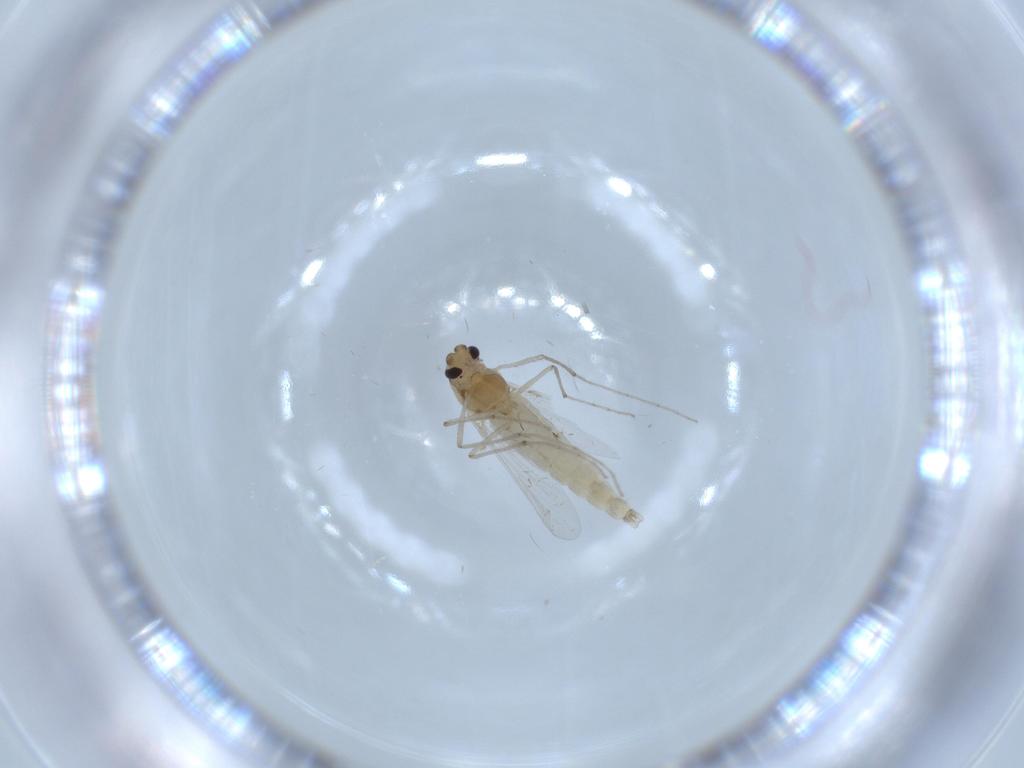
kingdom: Animalia
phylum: Arthropoda
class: Insecta
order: Diptera
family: Chironomidae
